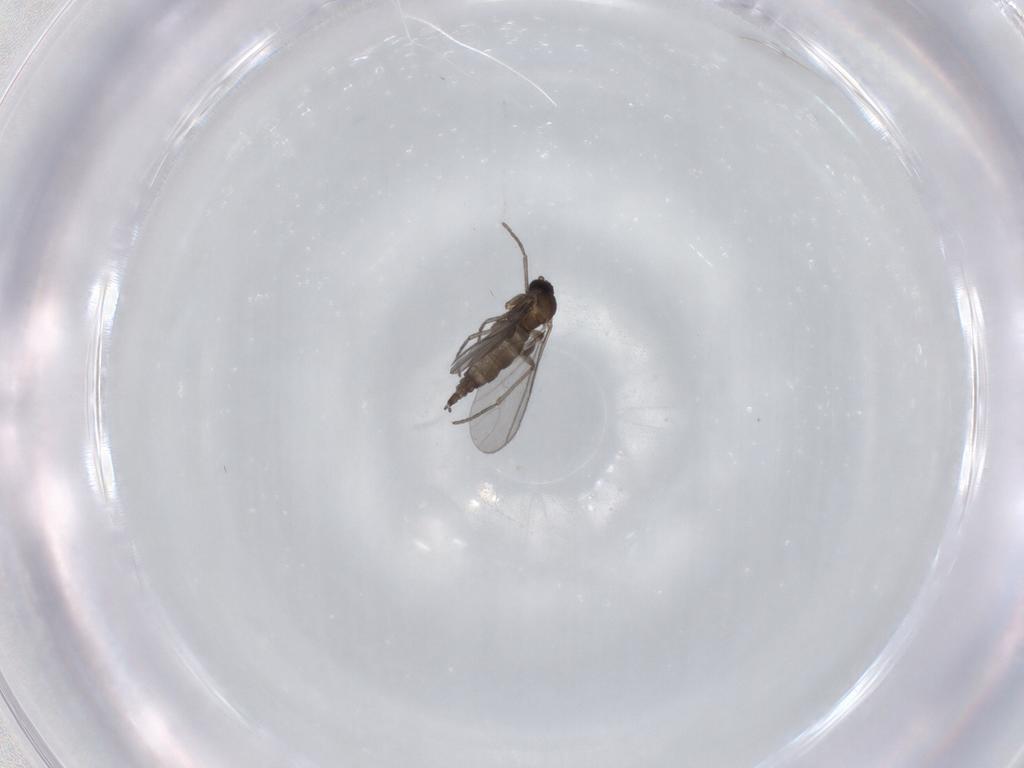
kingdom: Animalia
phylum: Arthropoda
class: Insecta
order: Diptera
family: Sciaridae
